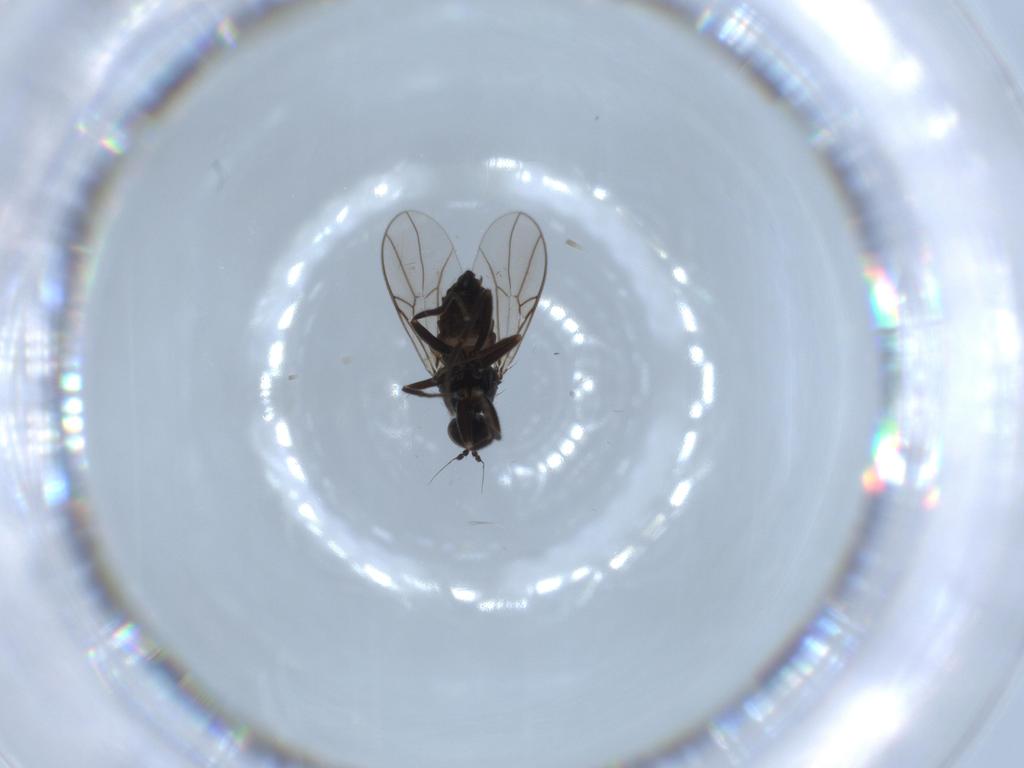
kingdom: Animalia
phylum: Arthropoda
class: Insecta
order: Diptera
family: Hybotidae
